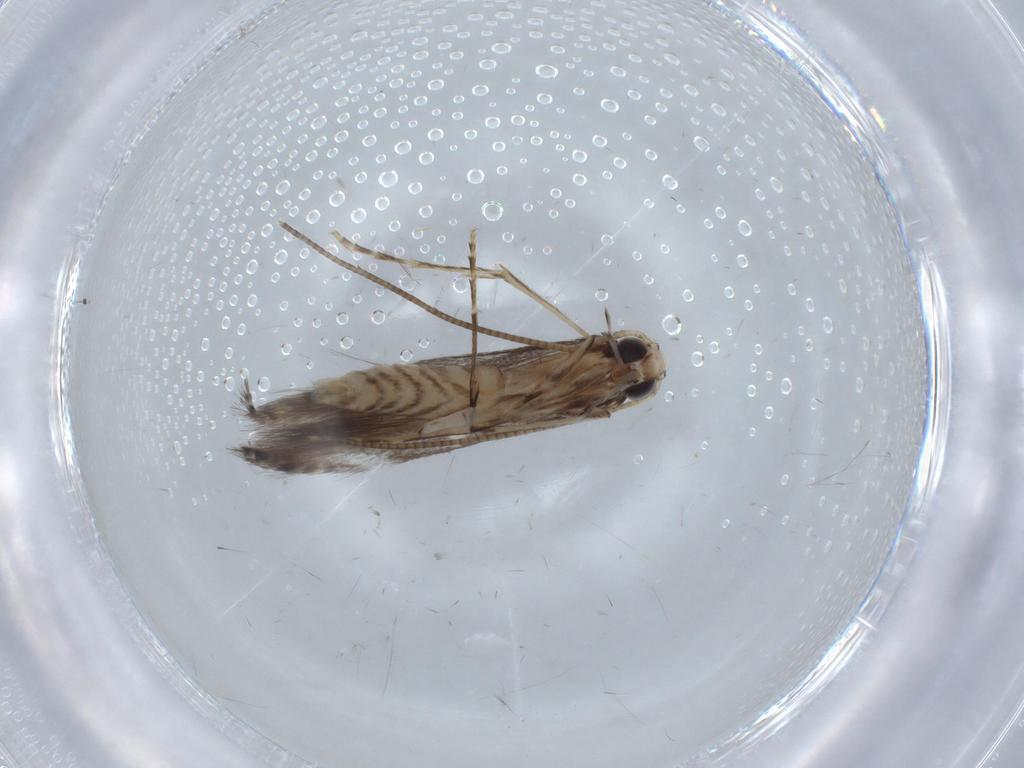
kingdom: Animalia
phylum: Arthropoda
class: Insecta
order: Lepidoptera
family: Gracillariidae
